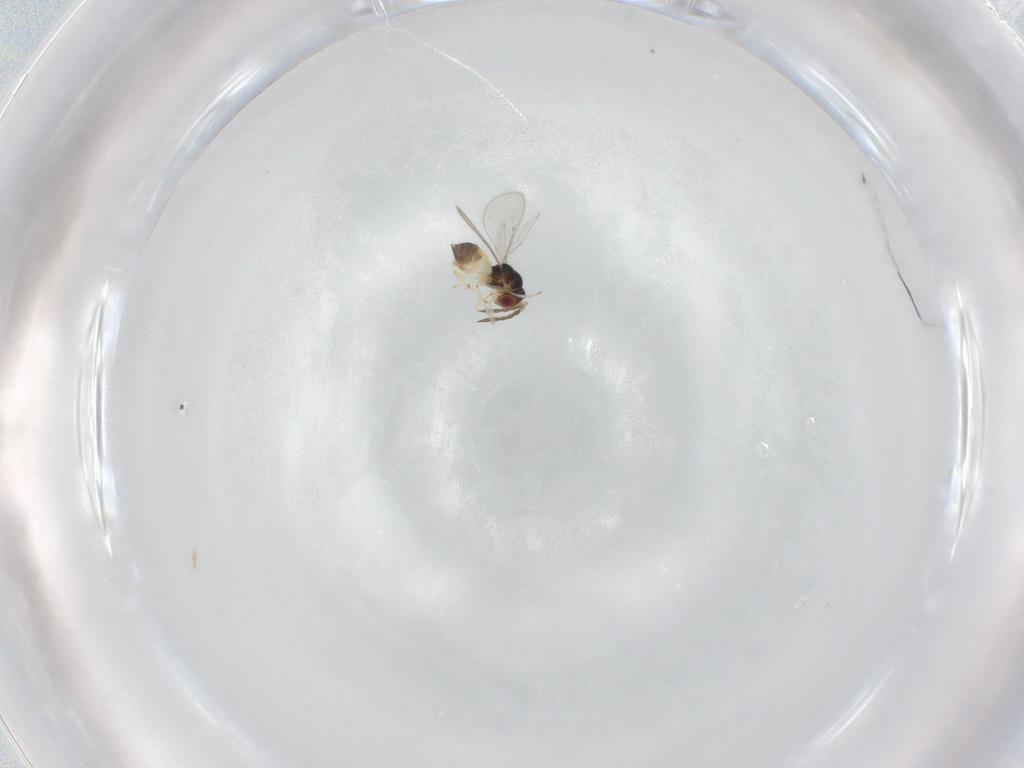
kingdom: Animalia
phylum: Arthropoda
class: Insecta
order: Hymenoptera
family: Eulophidae
